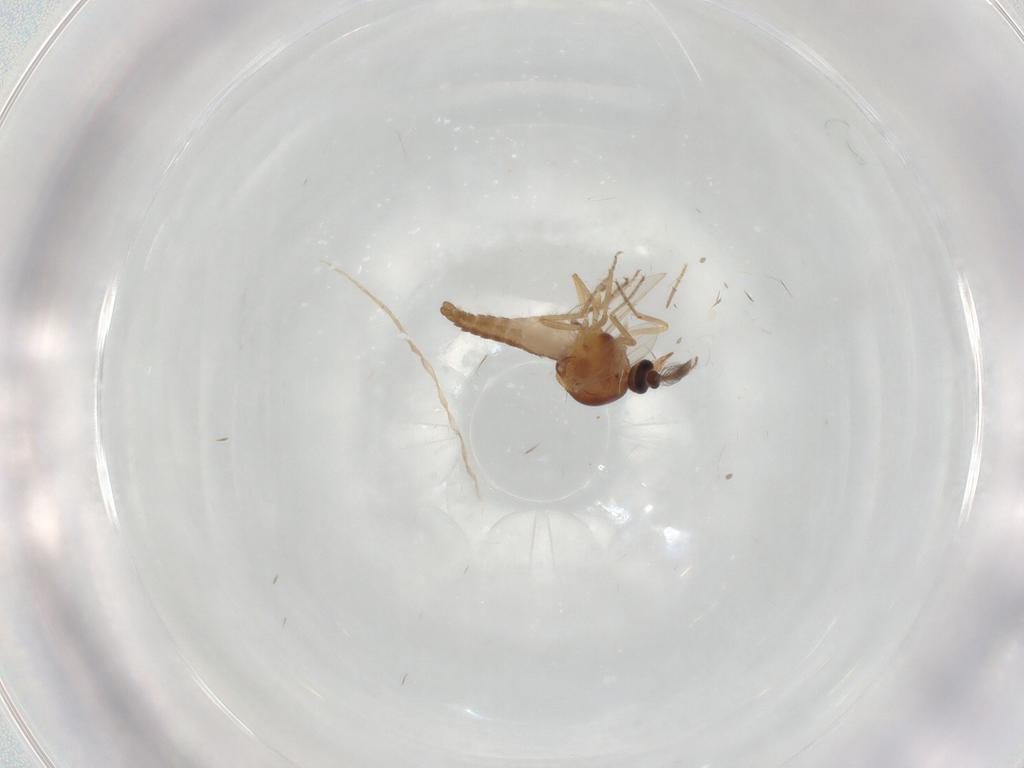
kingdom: Animalia
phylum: Arthropoda
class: Insecta
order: Diptera
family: Ceratopogonidae
